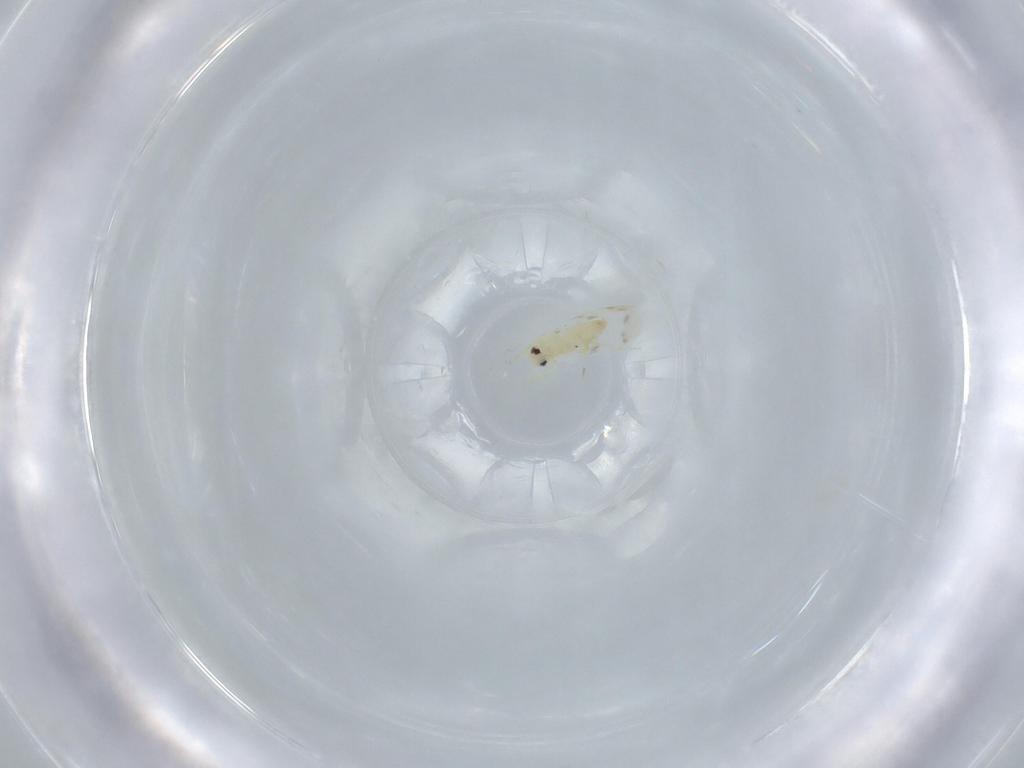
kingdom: Animalia
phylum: Arthropoda
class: Insecta
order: Hemiptera
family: Aleyrodidae
